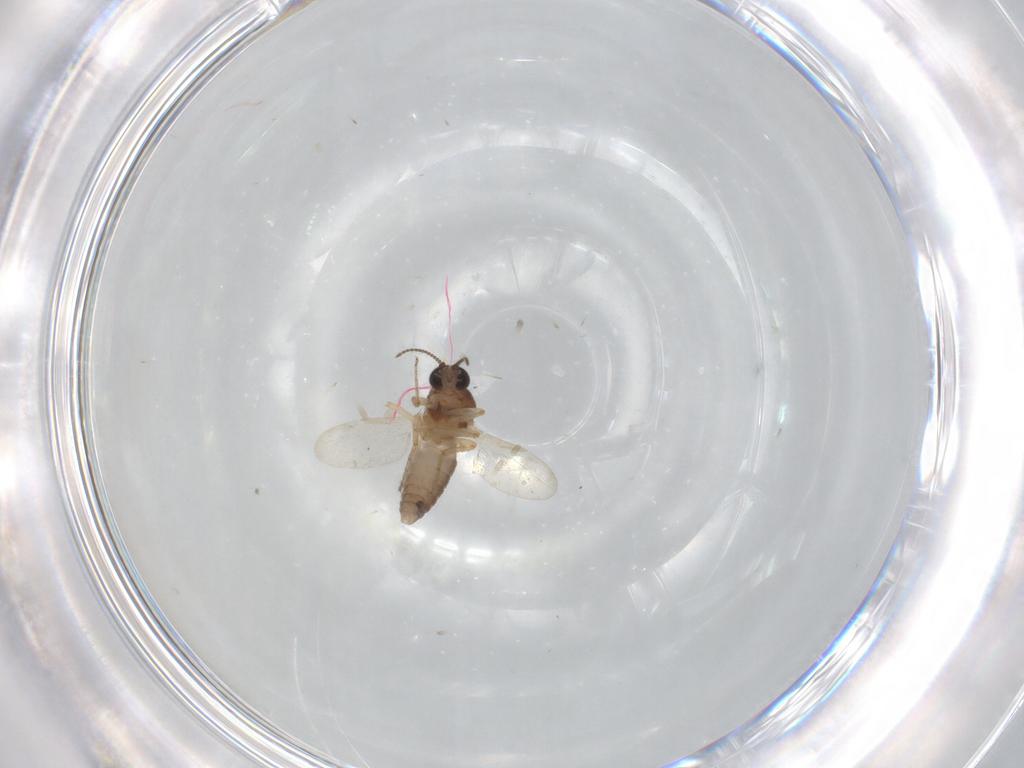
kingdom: Animalia
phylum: Arthropoda
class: Insecta
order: Diptera
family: Ceratopogonidae
